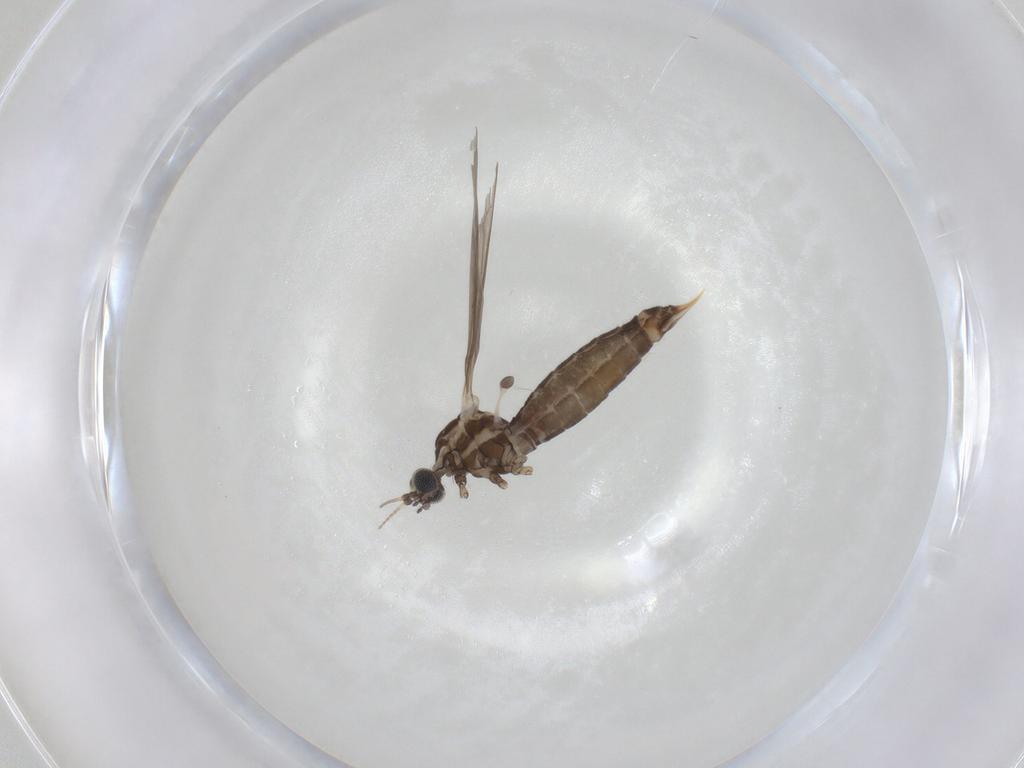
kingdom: Animalia
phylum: Arthropoda
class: Insecta
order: Diptera
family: Limoniidae
